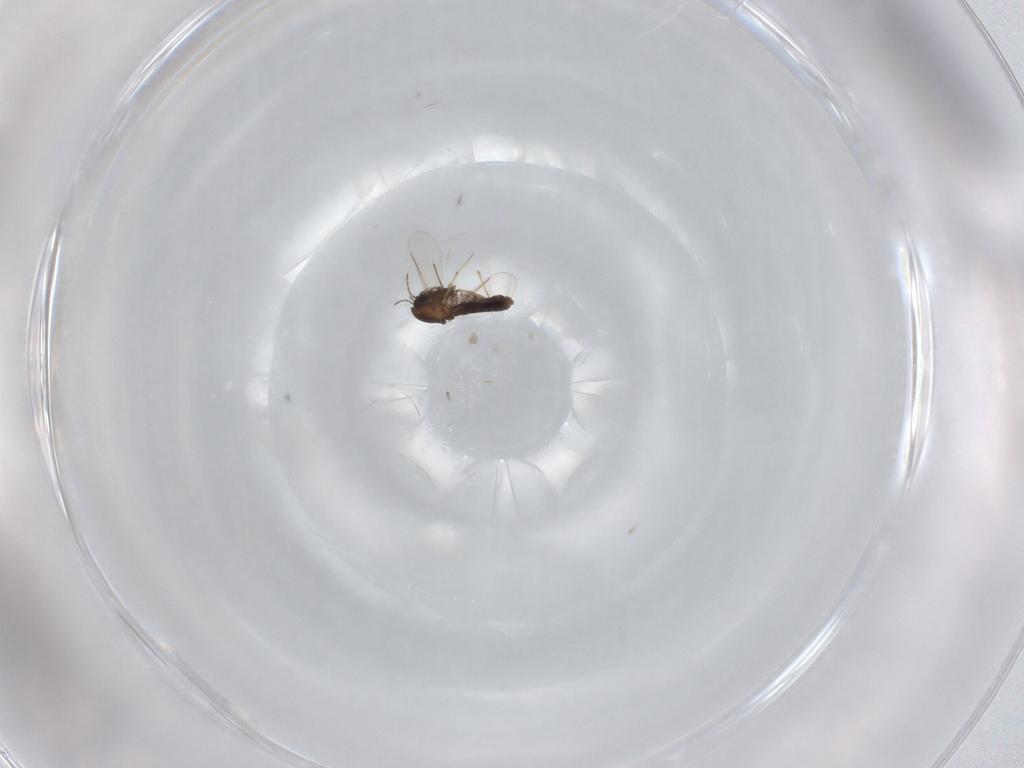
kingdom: Animalia
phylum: Arthropoda
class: Insecta
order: Diptera
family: Chironomidae
